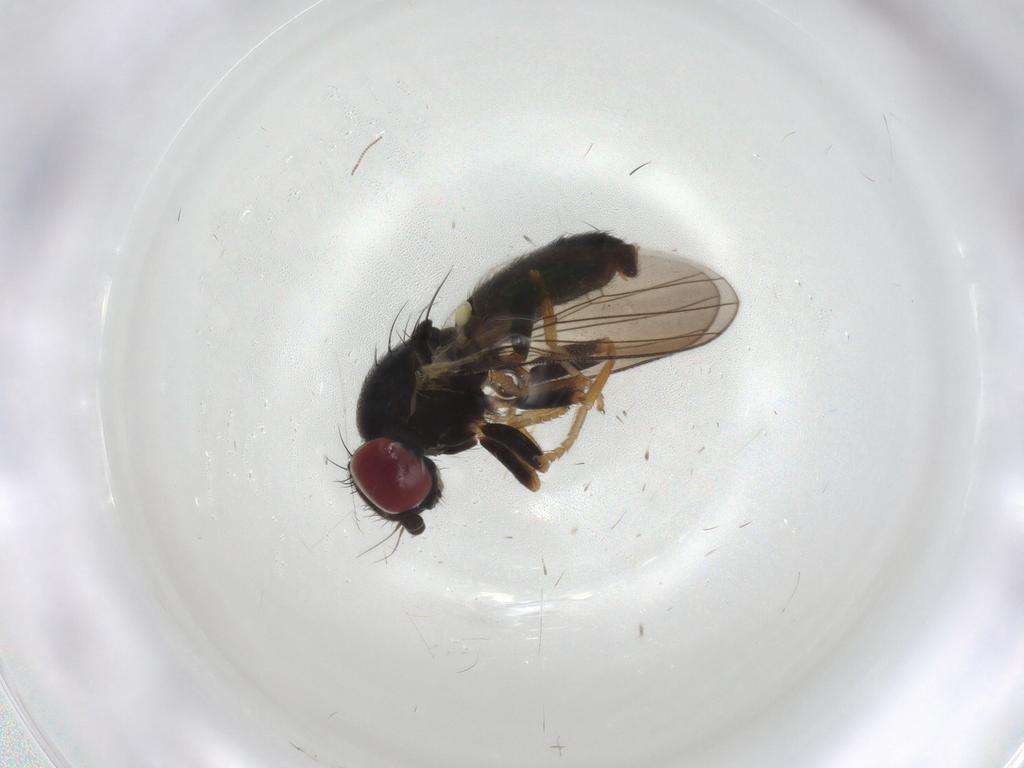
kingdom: Animalia
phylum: Arthropoda
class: Insecta
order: Diptera
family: Chamaemyiidae
